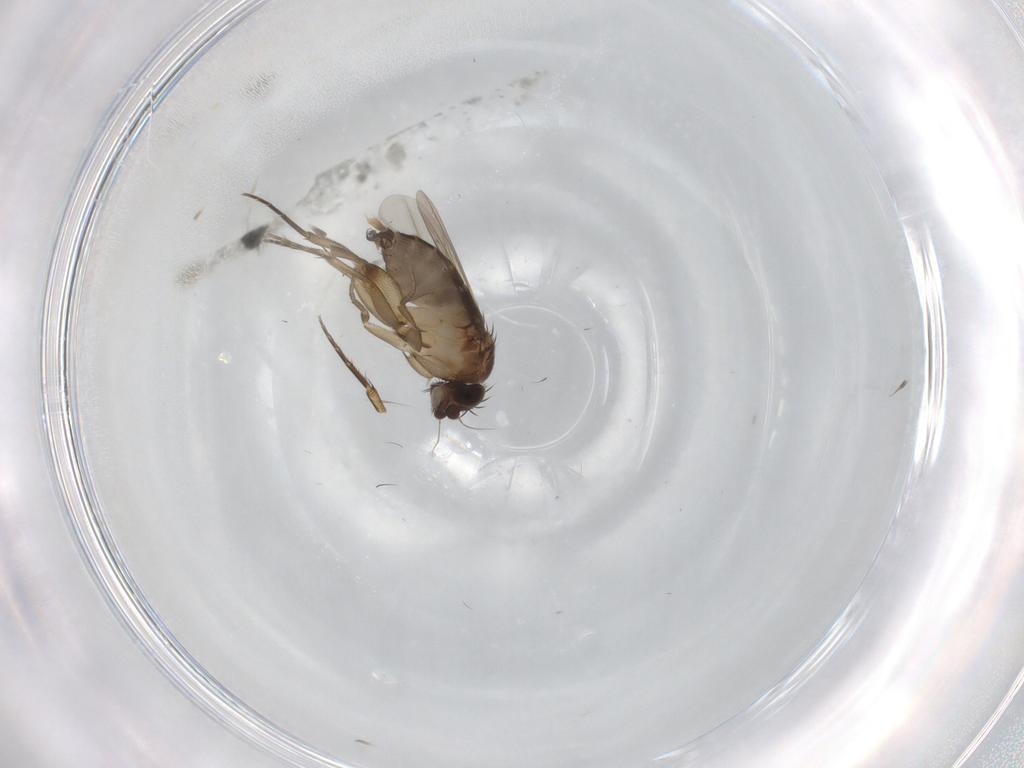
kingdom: Animalia
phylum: Arthropoda
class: Insecta
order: Diptera
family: Phoridae
